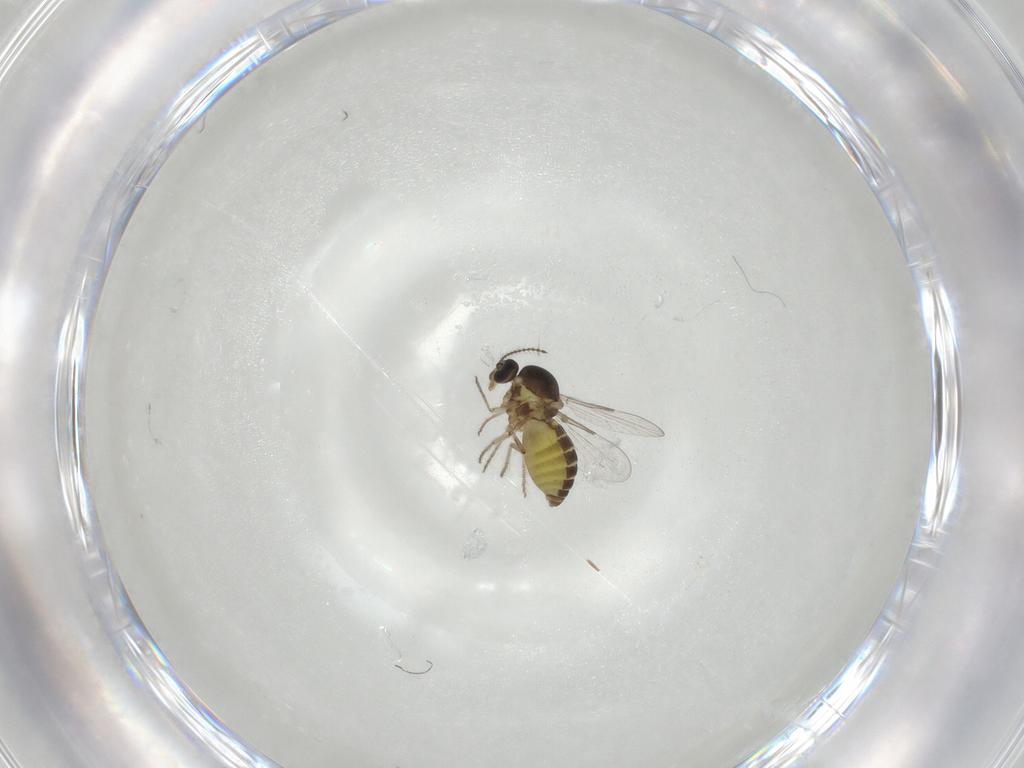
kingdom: Animalia
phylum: Arthropoda
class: Insecta
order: Diptera
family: Ceratopogonidae
